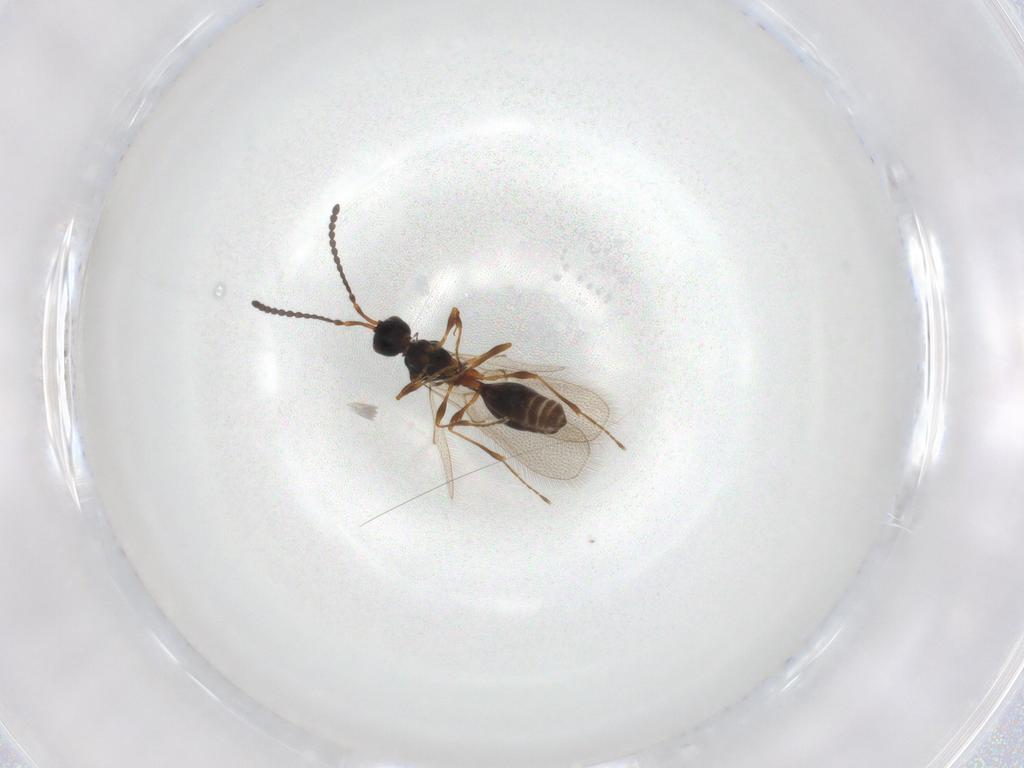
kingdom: Animalia
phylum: Arthropoda
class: Insecta
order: Hymenoptera
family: Diapriidae
